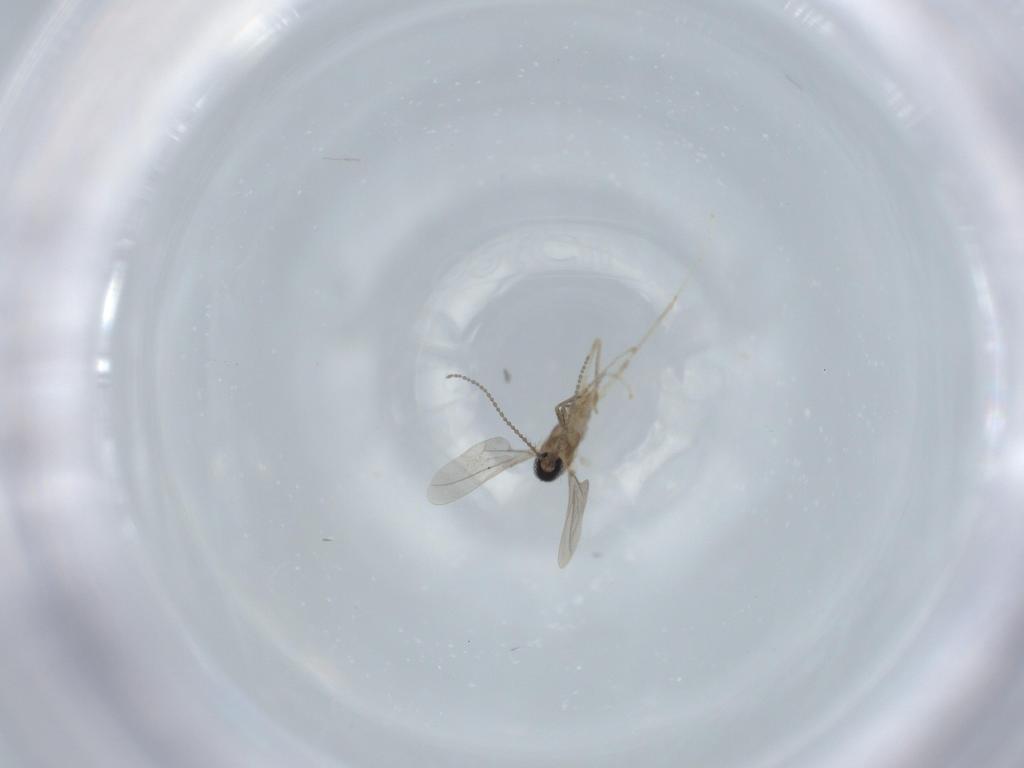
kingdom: Animalia
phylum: Arthropoda
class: Insecta
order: Diptera
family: Cecidomyiidae
